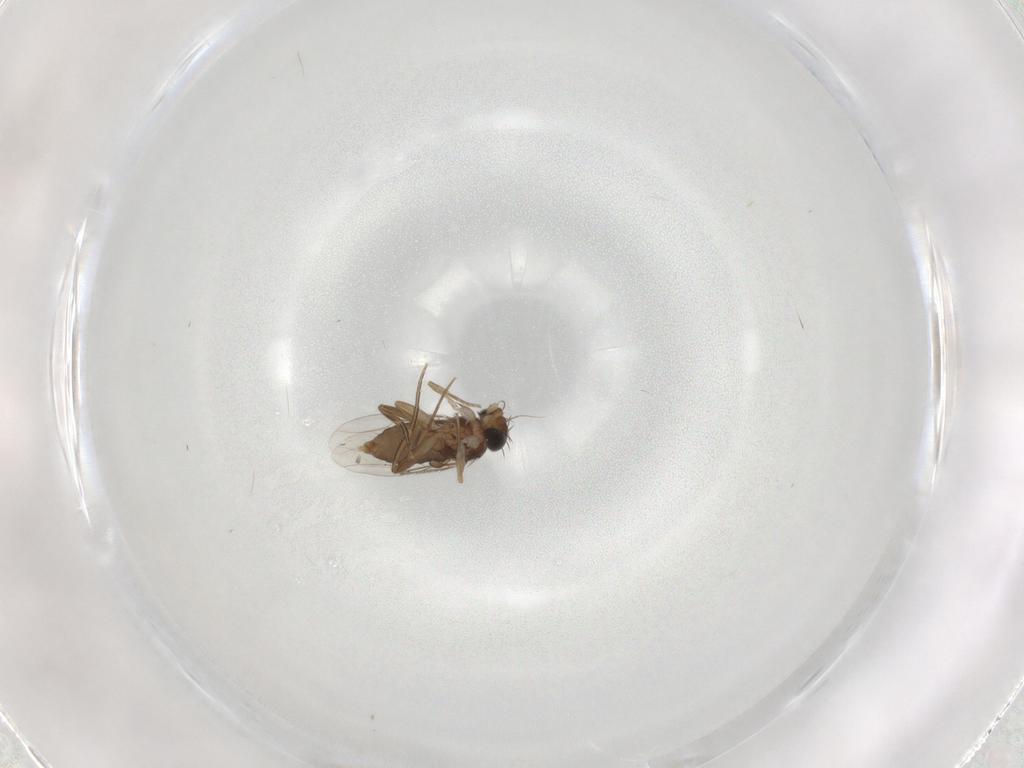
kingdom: Animalia
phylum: Arthropoda
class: Insecta
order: Diptera
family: Phoridae
